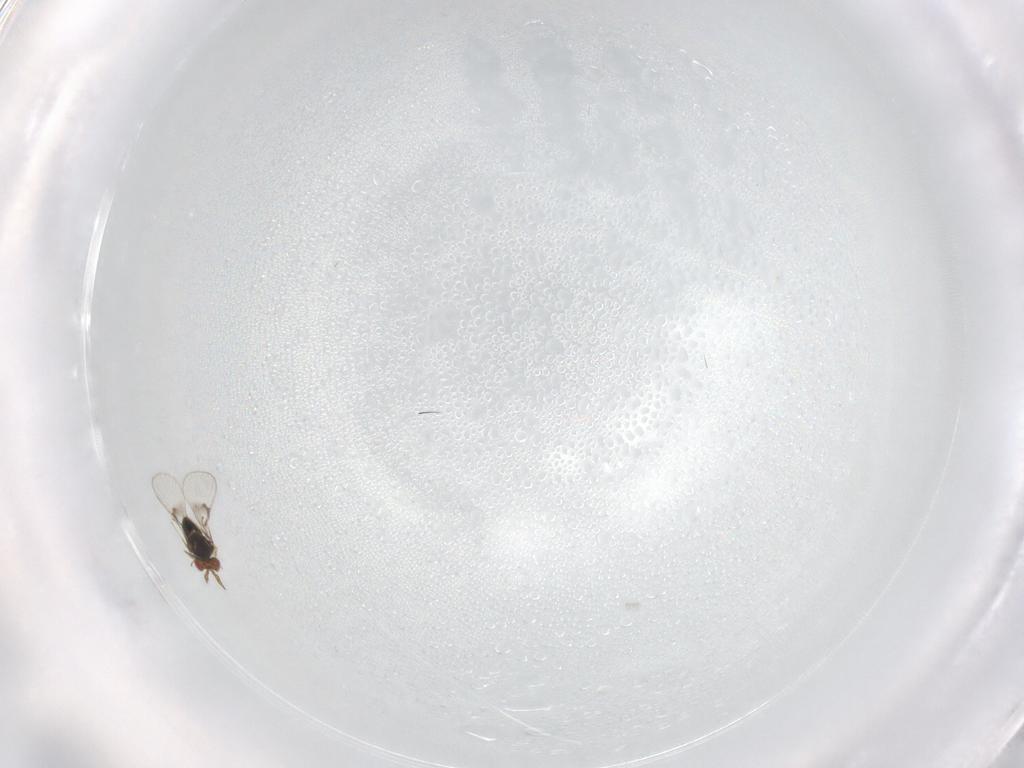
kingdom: Animalia
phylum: Arthropoda
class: Insecta
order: Hymenoptera
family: Trichogrammatidae
